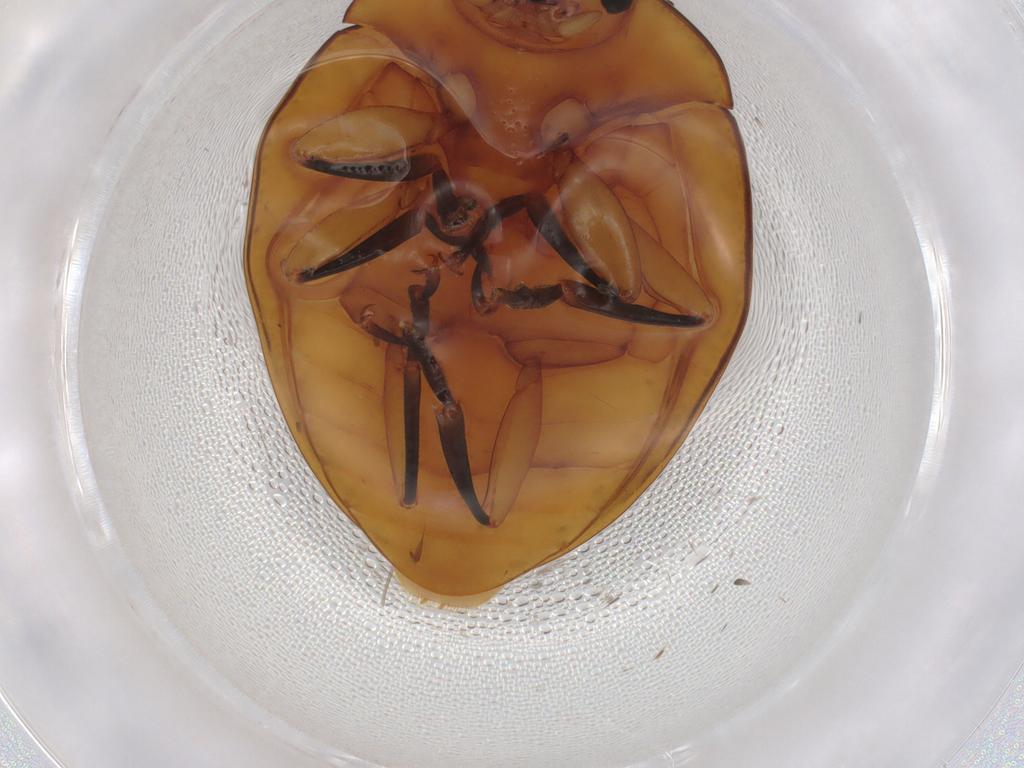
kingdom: Animalia
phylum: Arthropoda
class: Insecta
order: Coleoptera
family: Erotylidae
